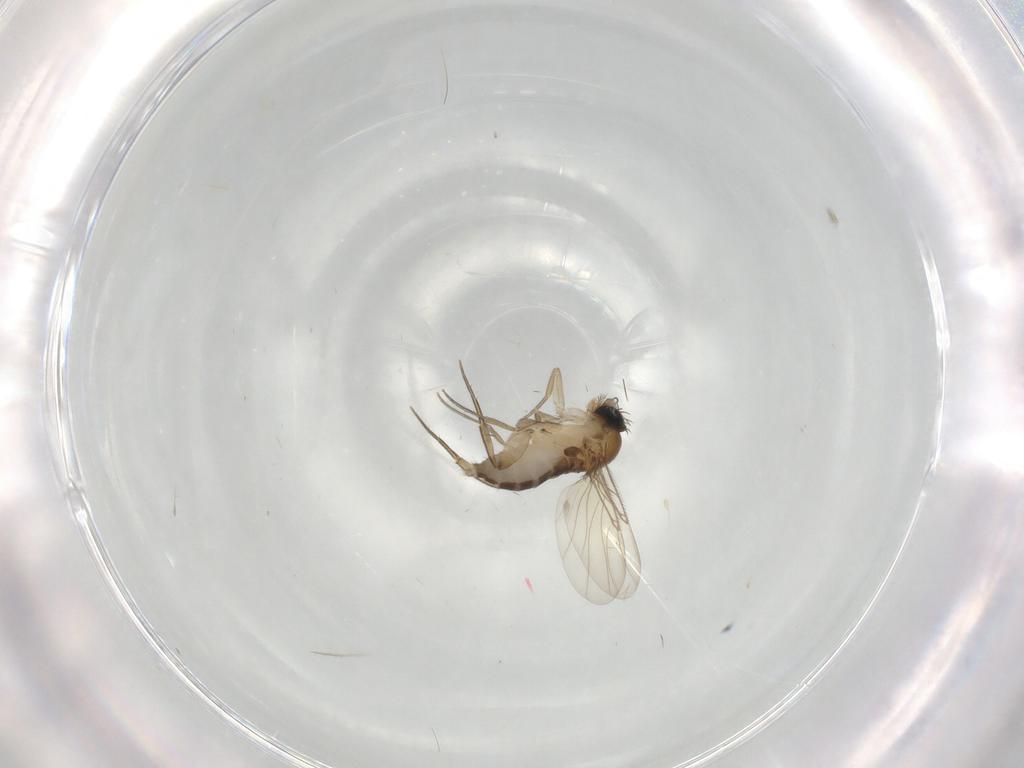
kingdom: Animalia
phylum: Arthropoda
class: Insecta
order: Diptera
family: Phoridae
